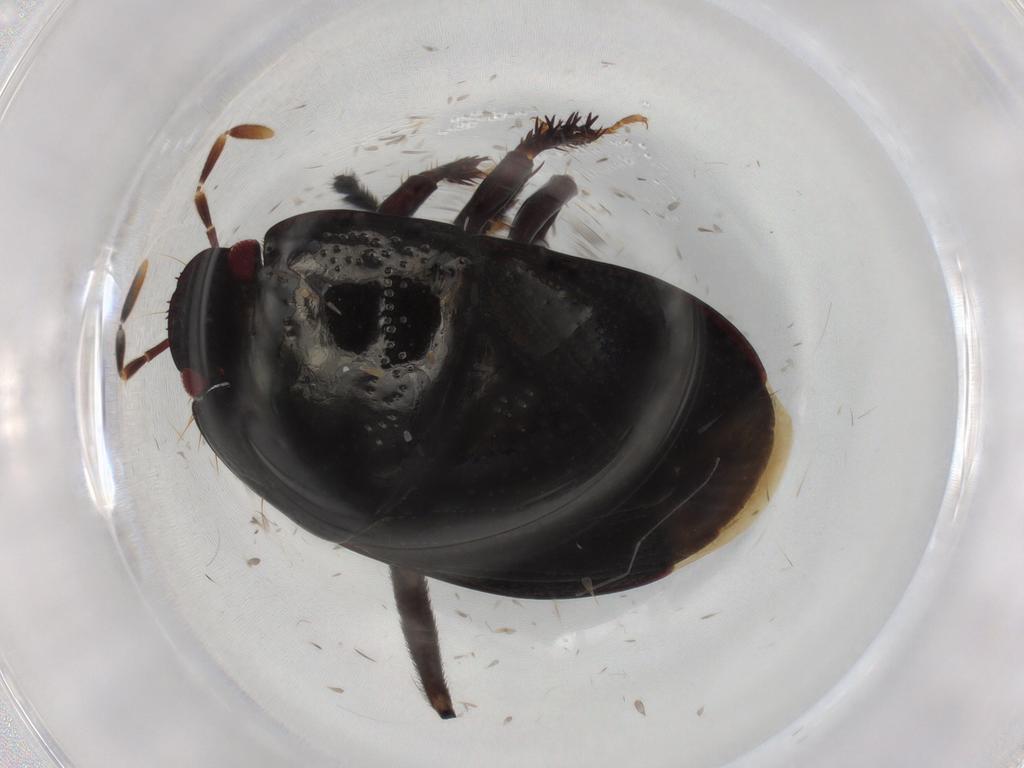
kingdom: Animalia
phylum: Arthropoda
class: Insecta
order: Hemiptera
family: Cydnidae
